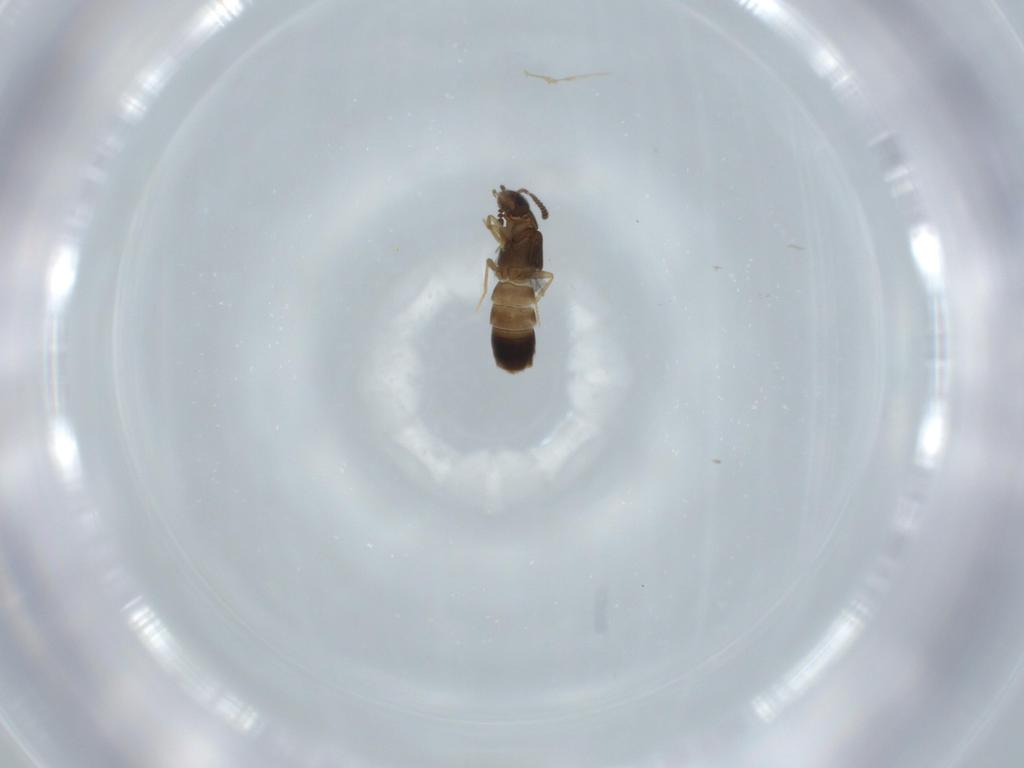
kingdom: Animalia
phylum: Arthropoda
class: Insecta
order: Coleoptera
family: Staphylinidae
